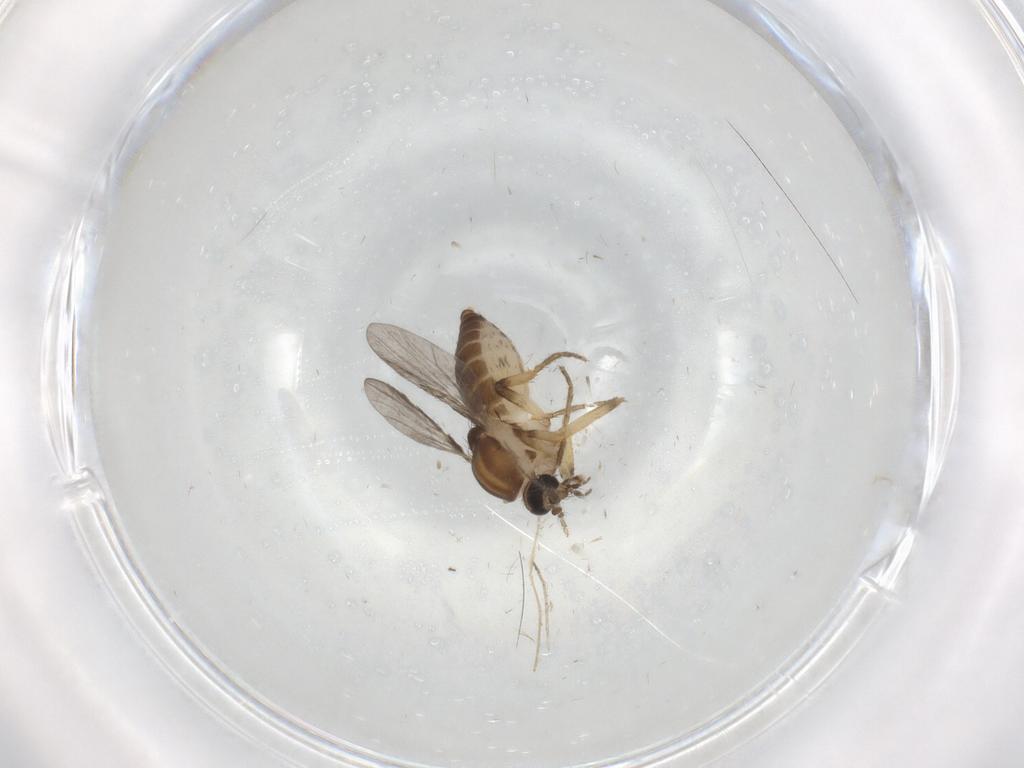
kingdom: Animalia
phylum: Arthropoda
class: Insecta
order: Diptera
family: Ceratopogonidae
